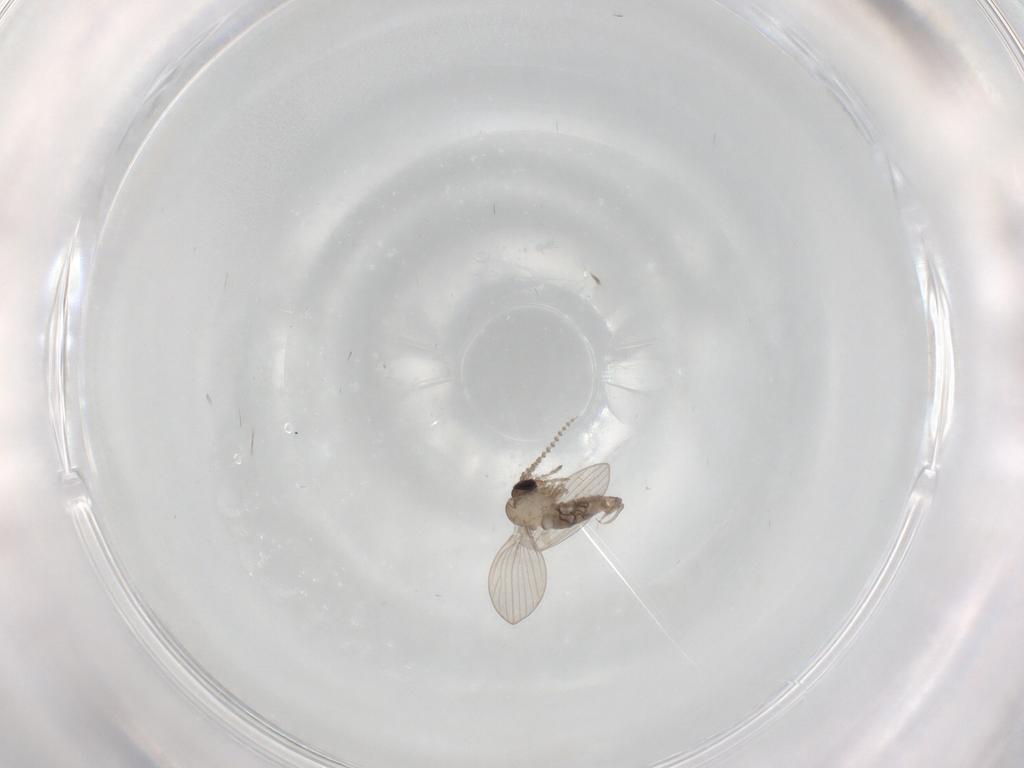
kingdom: Animalia
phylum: Arthropoda
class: Insecta
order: Diptera
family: Psychodidae
